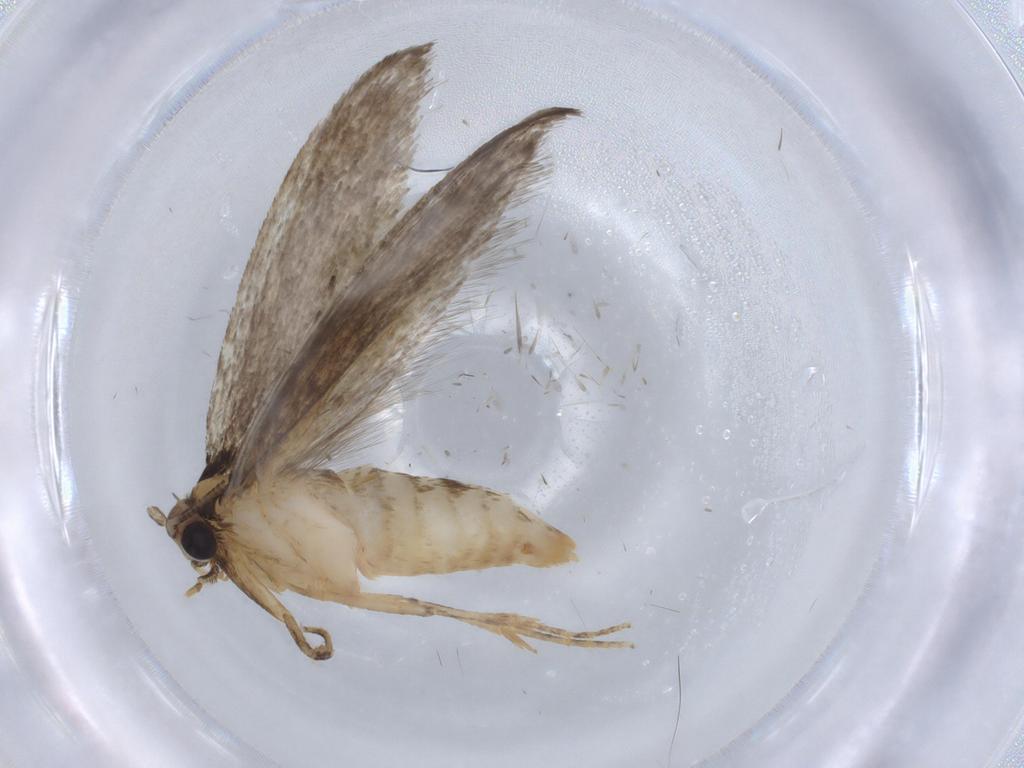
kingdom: Animalia
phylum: Arthropoda
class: Insecta
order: Lepidoptera
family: Tineidae
